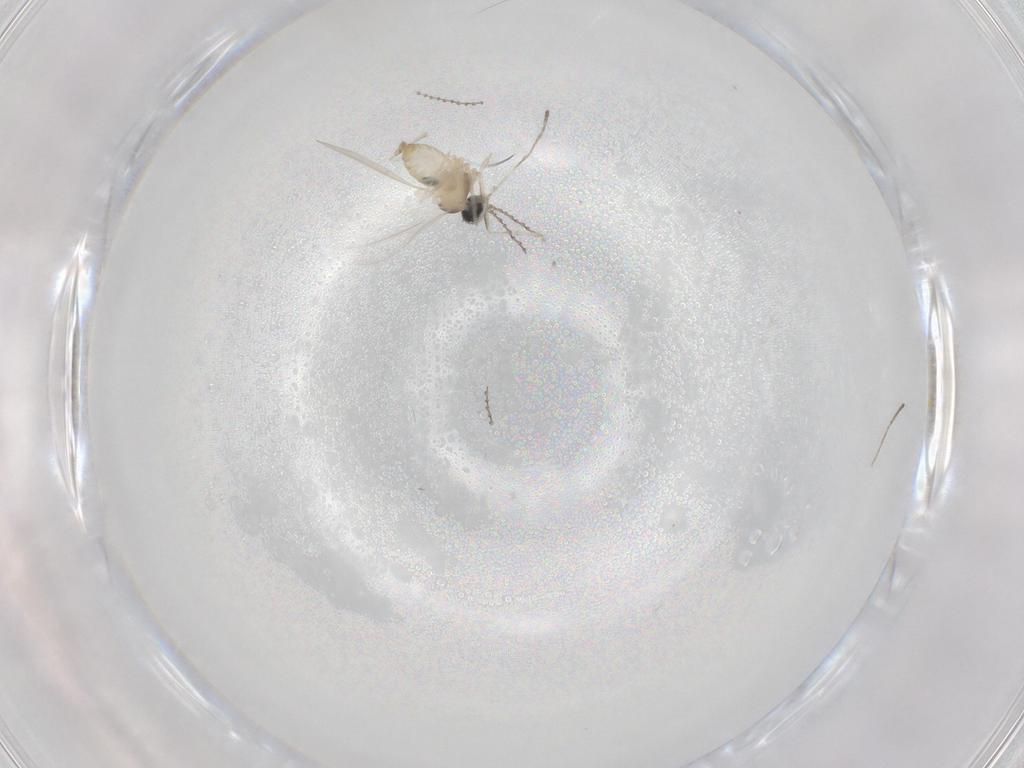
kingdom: Animalia
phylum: Arthropoda
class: Insecta
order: Diptera
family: Cecidomyiidae
